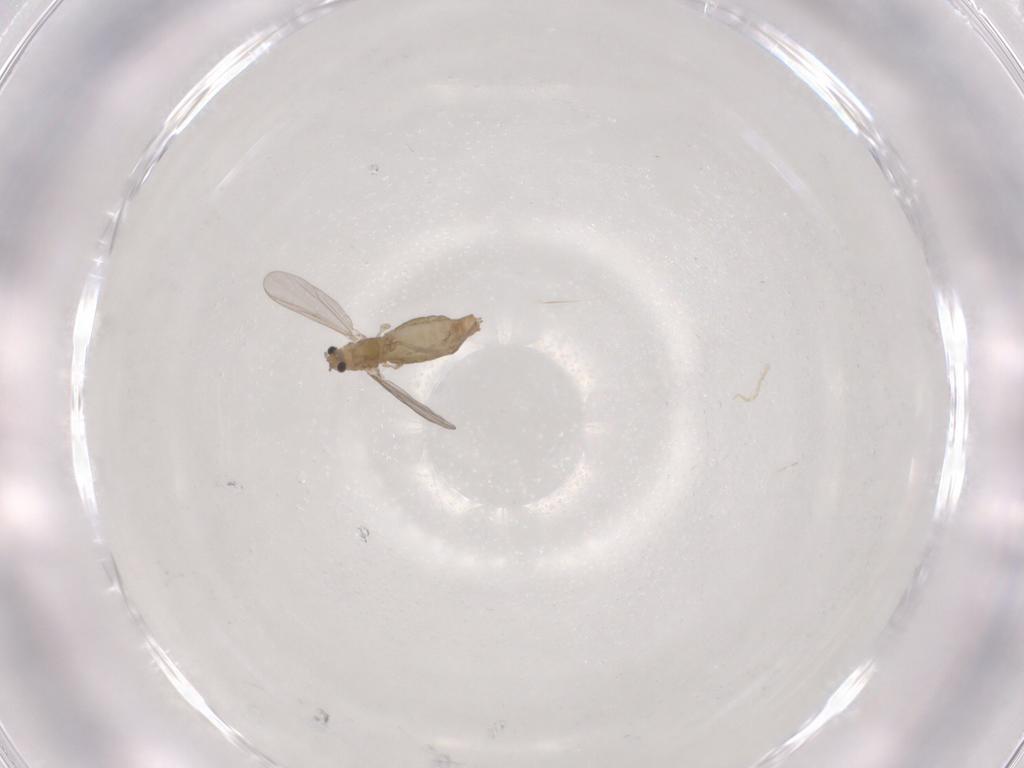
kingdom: Animalia
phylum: Arthropoda
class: Insecta
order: Diptera
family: Chironomidae
